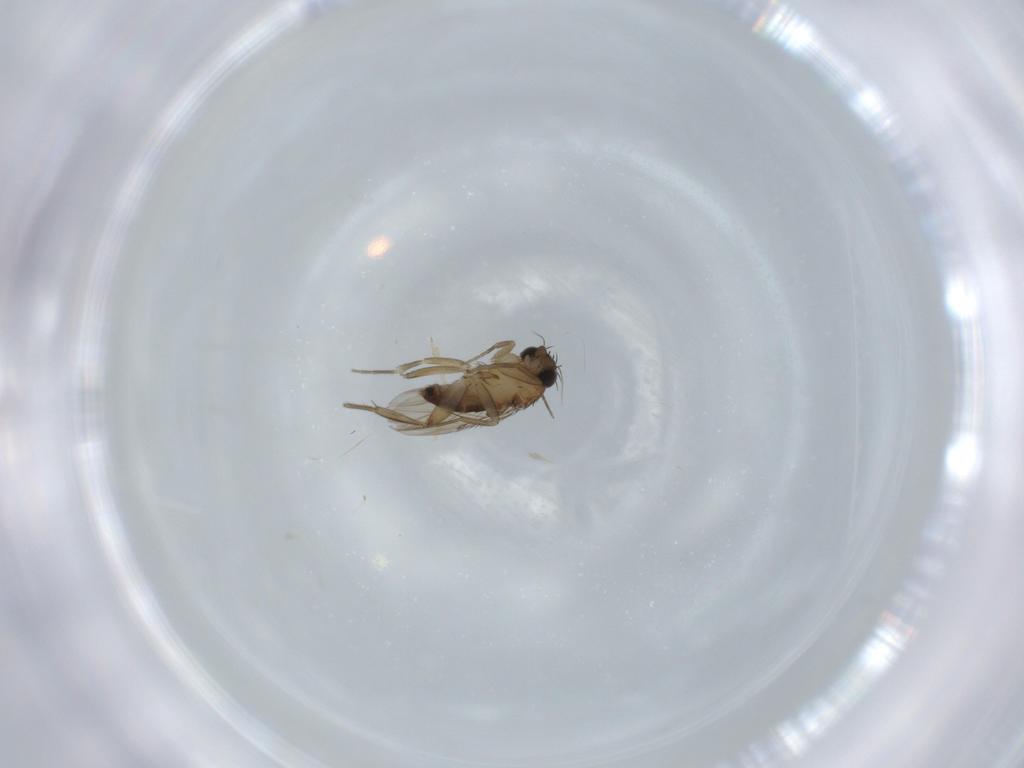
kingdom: Animalia
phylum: Arthropoda
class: Insecta
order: Diptera
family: Phoridae
